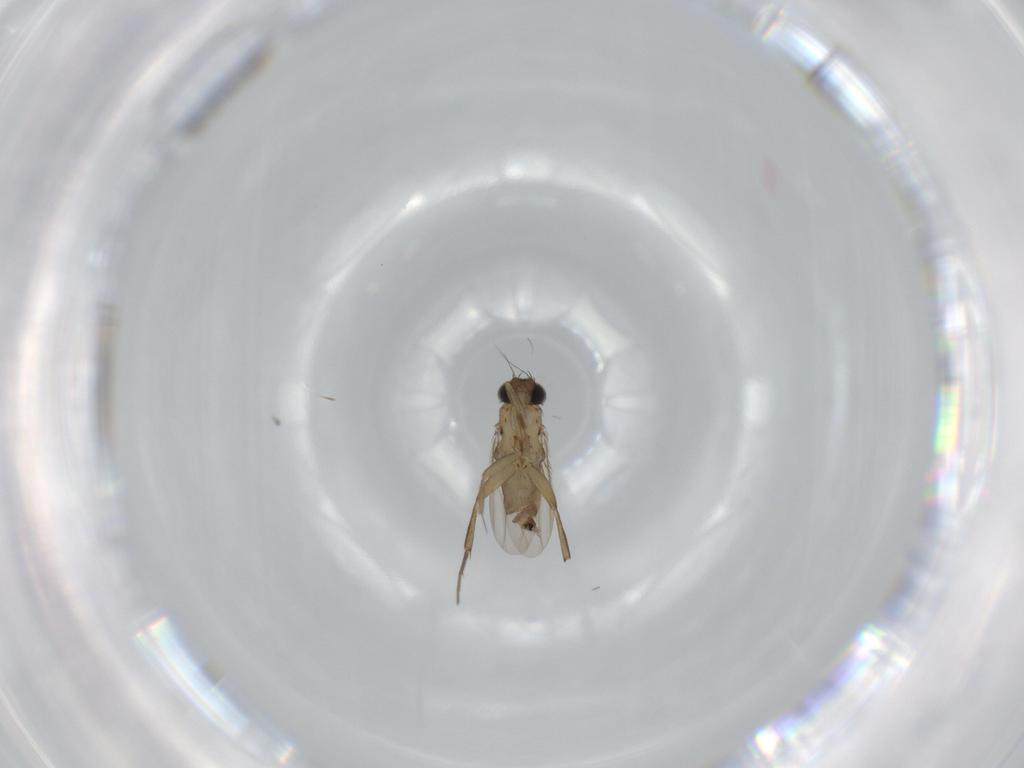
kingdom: Animalia
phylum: Arthropoda
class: Insecta
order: Diptera
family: Phoridae
